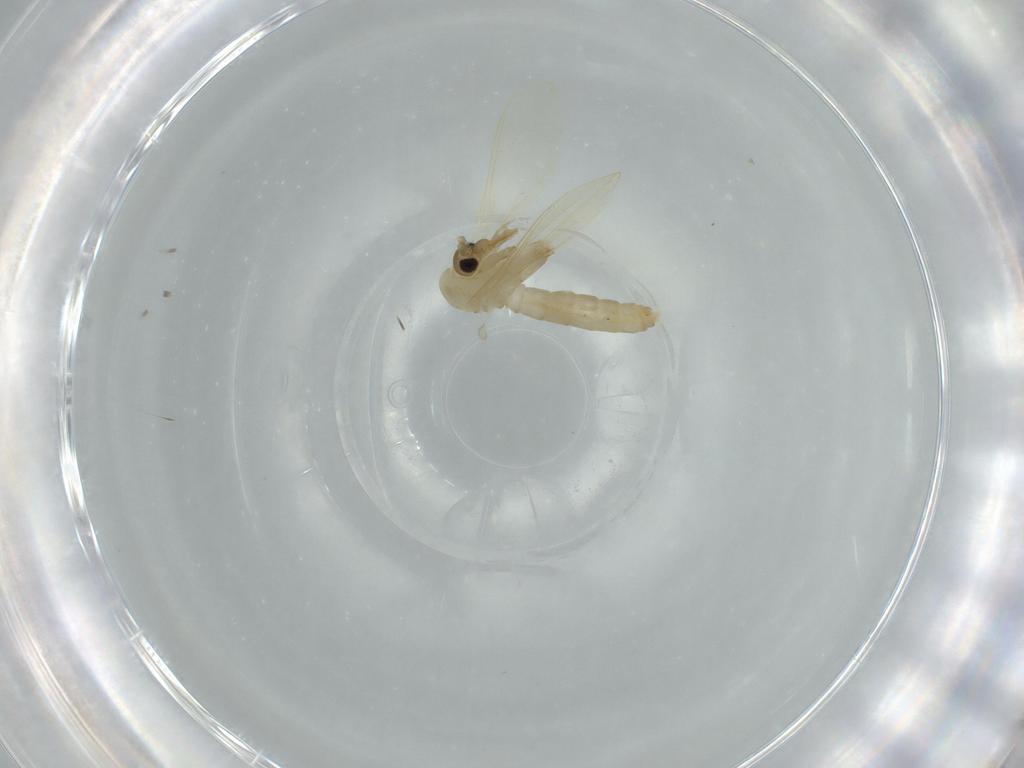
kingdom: Animalia
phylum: Arthropoda
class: Insecta
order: Diptera
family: Psychodidae
